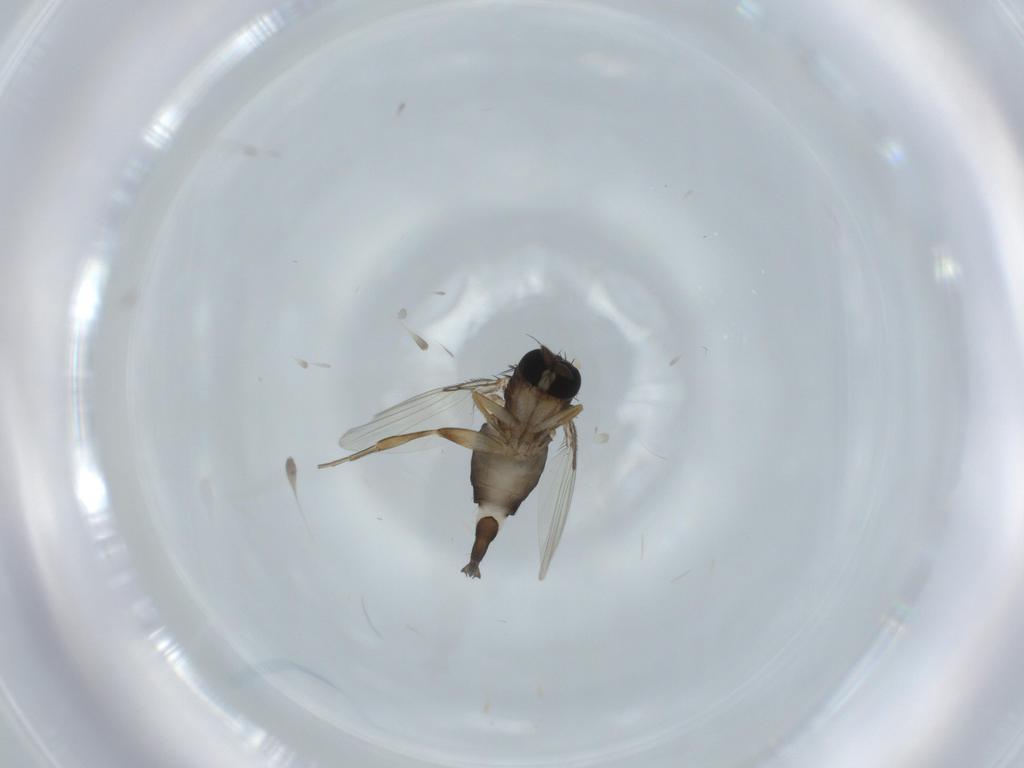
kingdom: Animalia
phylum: Arthropoda
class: Insecta
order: Diptera
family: Phoridae
